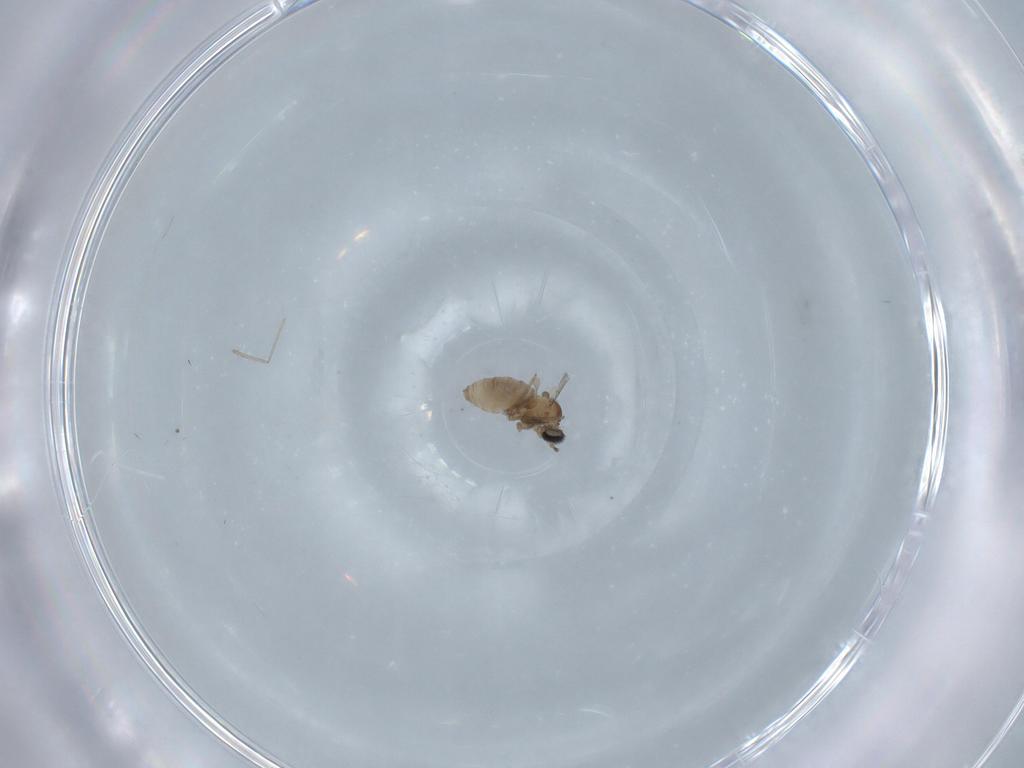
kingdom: Animalia
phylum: Arthropoda
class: Insecta
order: Diptera
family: Cecidomyiidae
